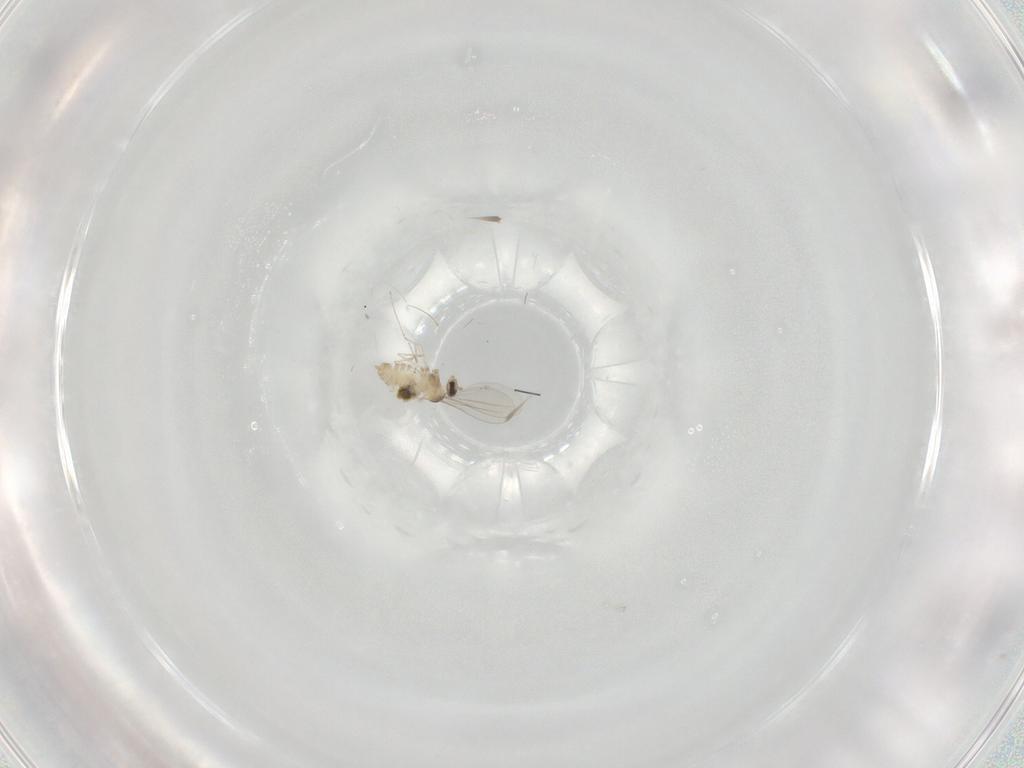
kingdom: Animalia
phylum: Arthropoda
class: Insecta
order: Diptera
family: Cecidomyiidae
